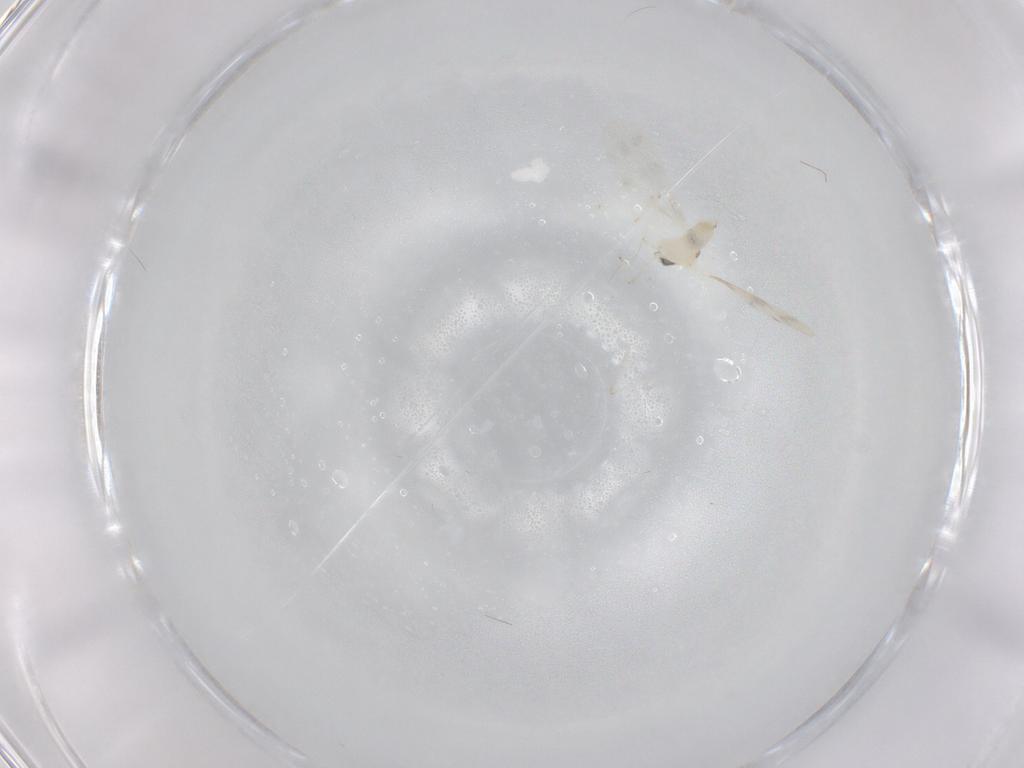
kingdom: Animalia
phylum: Arthropoda
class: Insecta
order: Diptera
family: Cecidomyiidae
